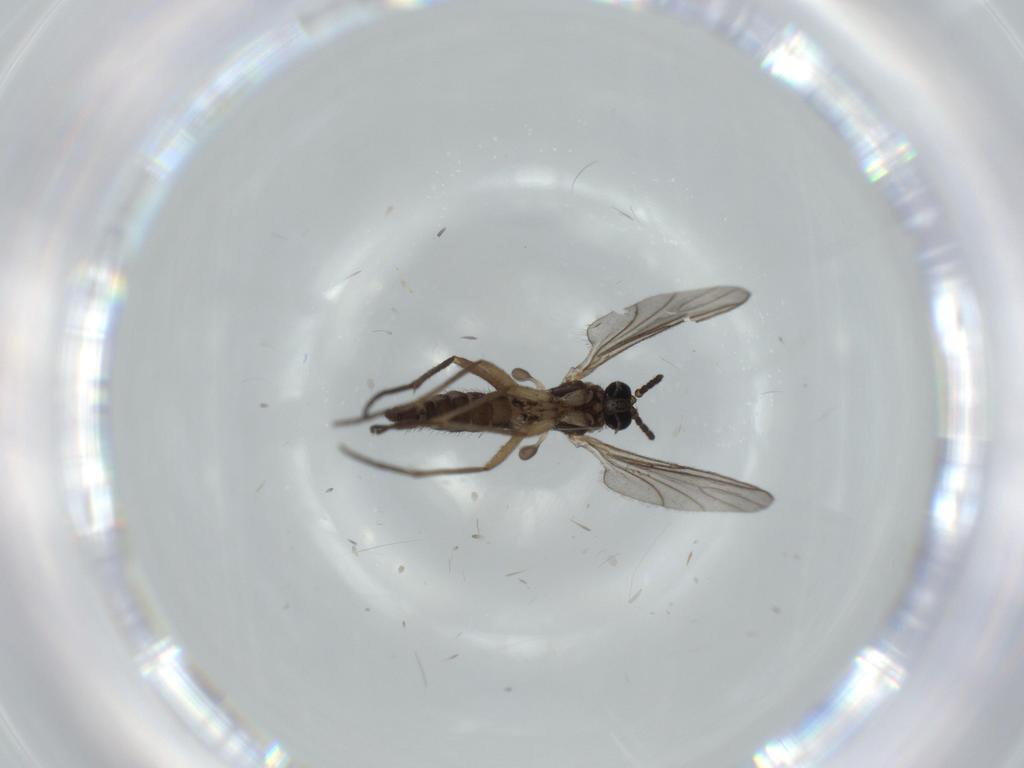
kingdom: Animalia
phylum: Arthropoda
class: Insecta
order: Diptera
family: Sciaridae
